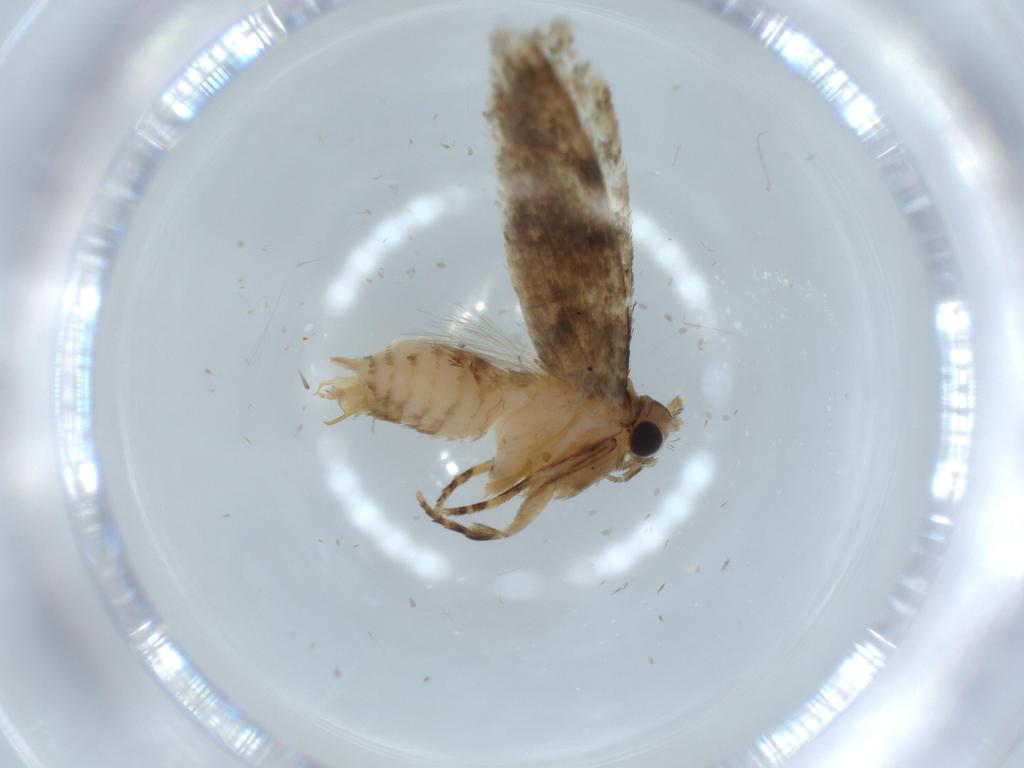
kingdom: Animalia
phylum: Arthropoda
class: Insecta
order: Lepidoptera
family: Tineidae
